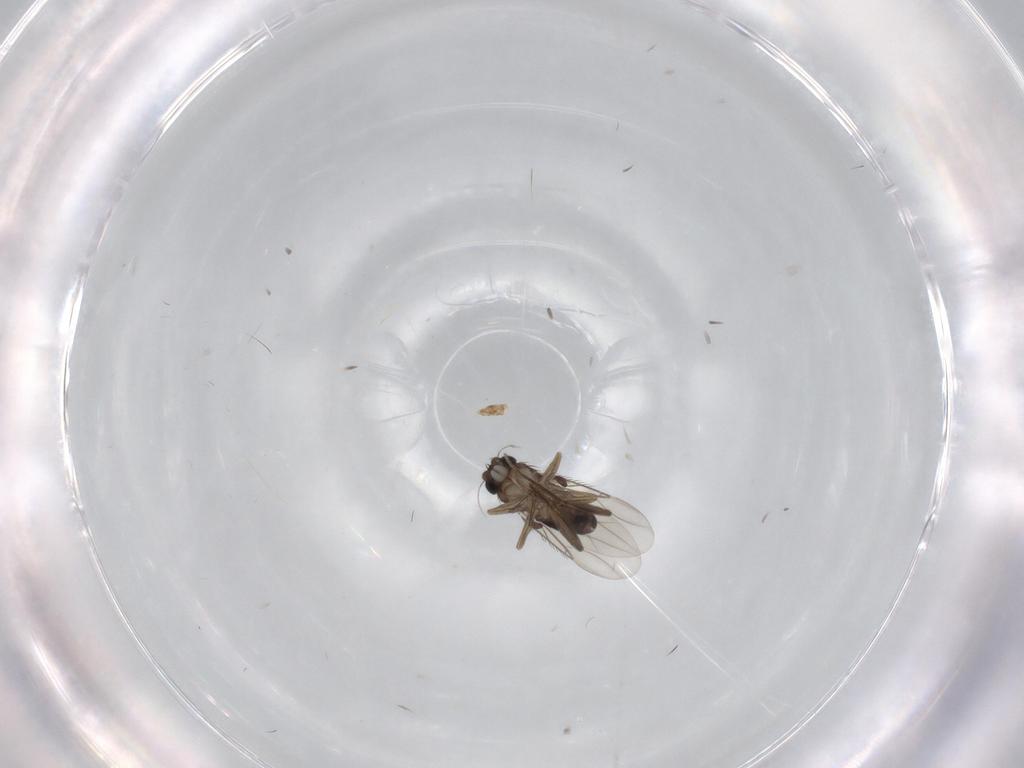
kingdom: Animalia
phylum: Arthropoda
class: Insecta
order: Diptera
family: Phoridae
